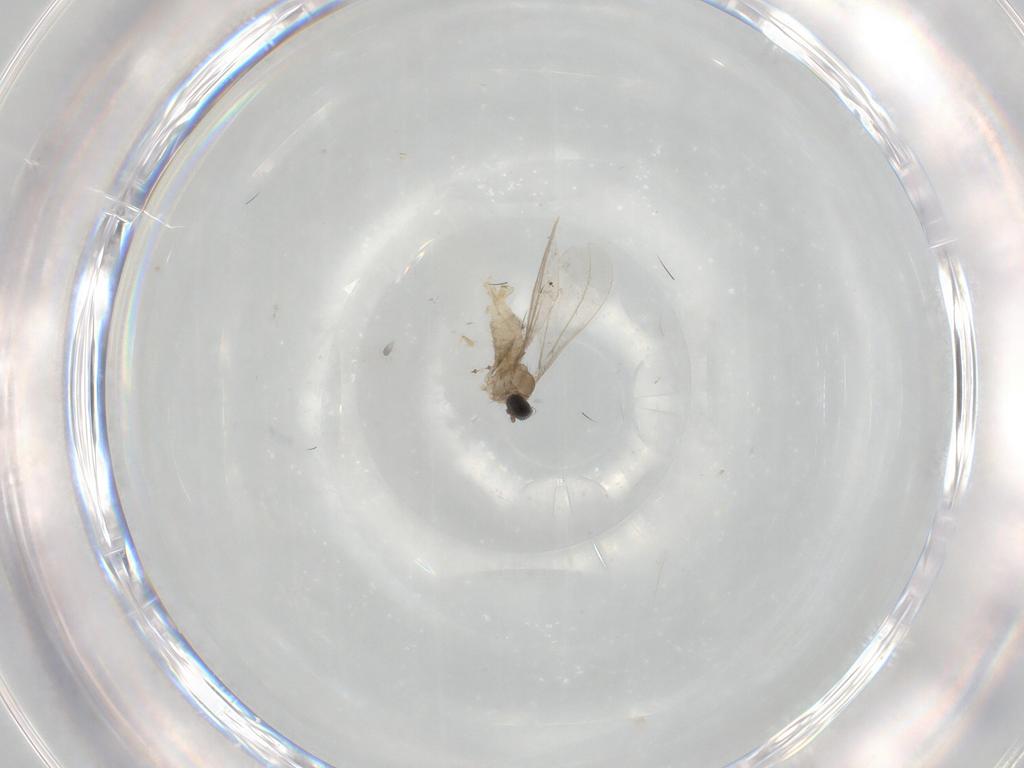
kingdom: Animalia
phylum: Arthropoda
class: Insecta
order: Diptera
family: Cecidomyiidae
